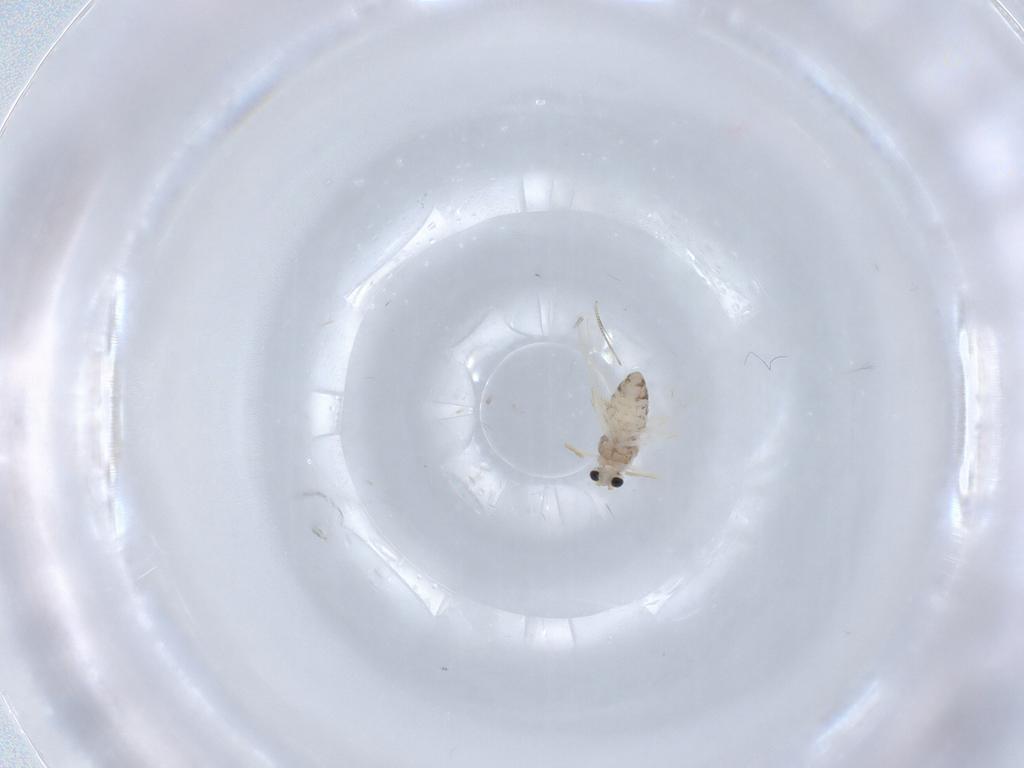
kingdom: Animalia
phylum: Arthropoda
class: Insecta
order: Diptera
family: Chironomidae
